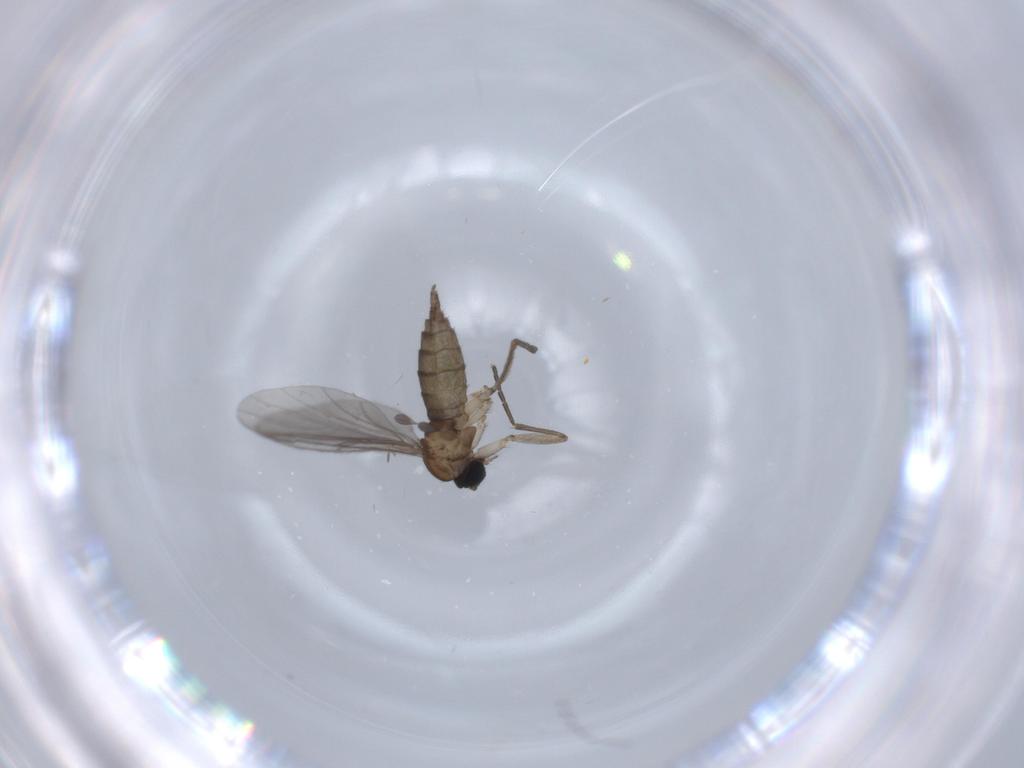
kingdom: Animalia
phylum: Arthropoda
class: Insecta
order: Diptera
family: Sciaridae
